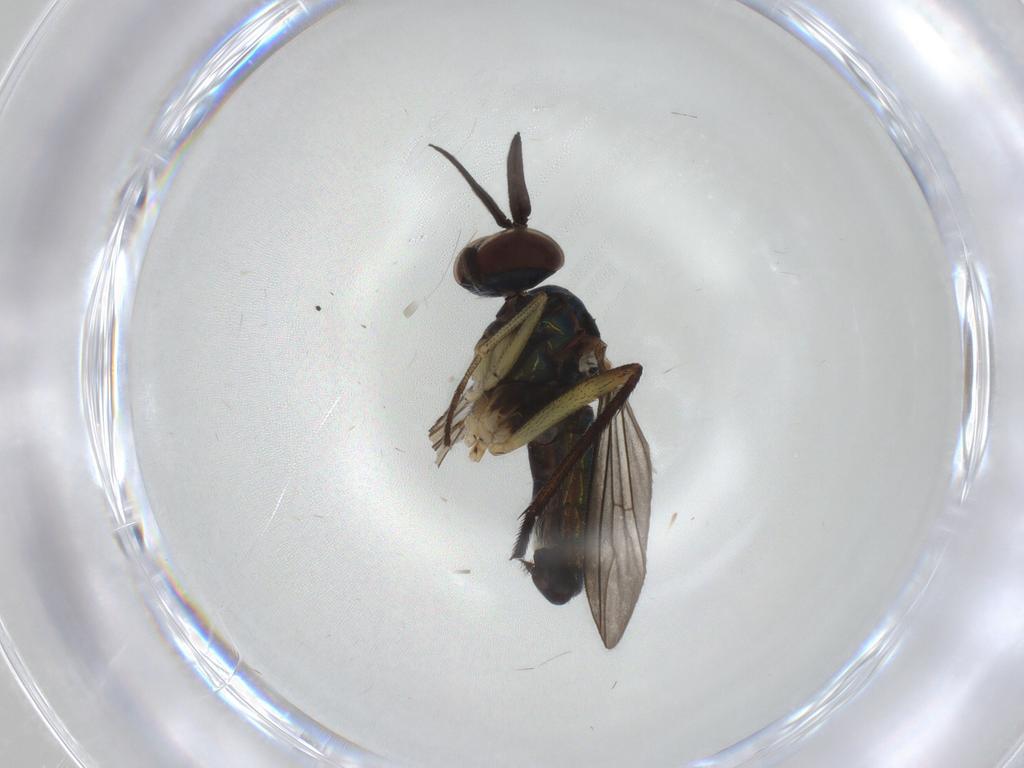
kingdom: Animalia
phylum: Arthropoda
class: Insecta
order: Diptera
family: Dolichopodidae
